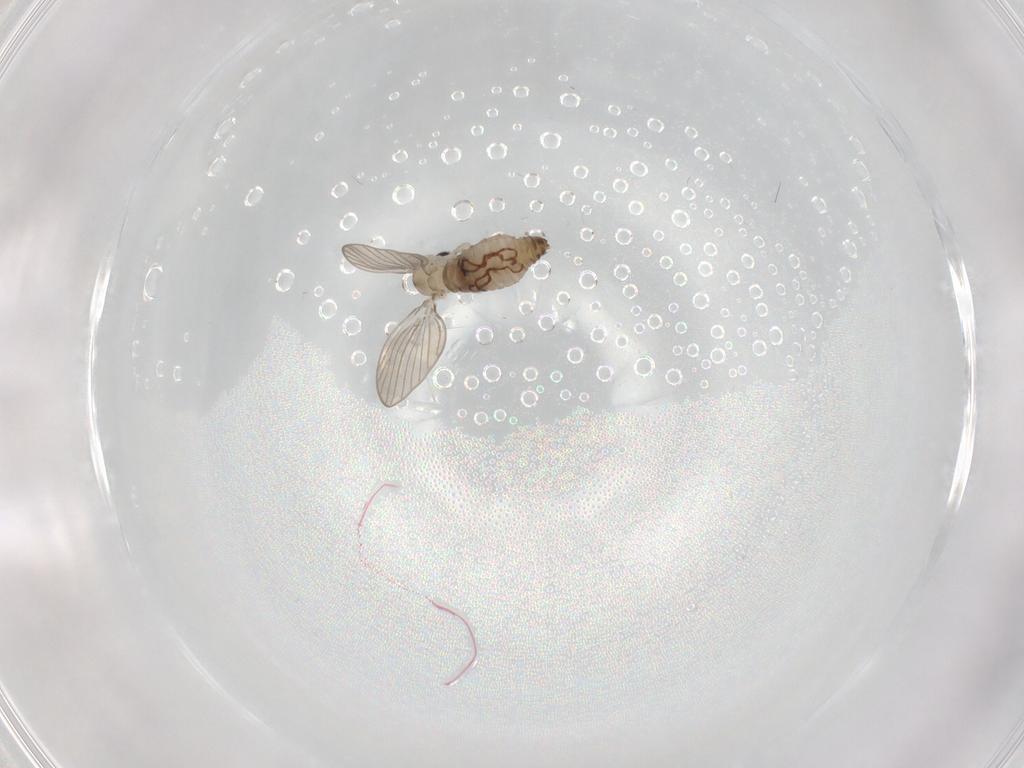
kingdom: Animalia
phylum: Arthropoda
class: Insecta
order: Diptera
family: Psychodidae
